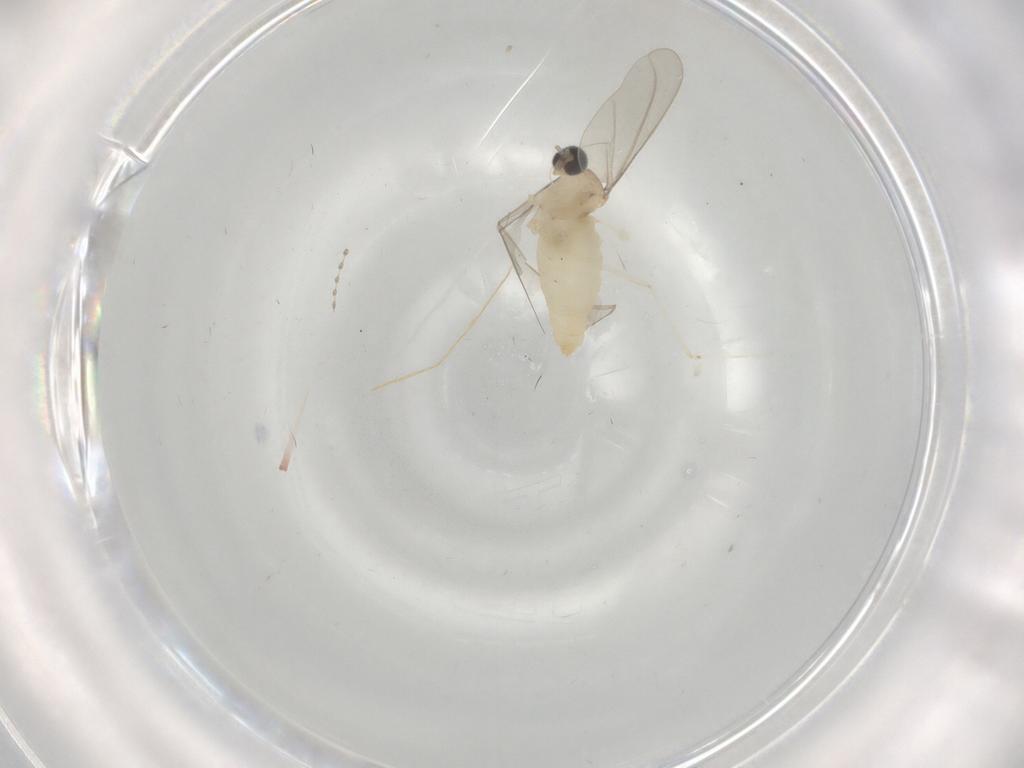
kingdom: Animalia
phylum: Arthropoda
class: Insecta
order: Diptera
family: Cecidomyiidae
